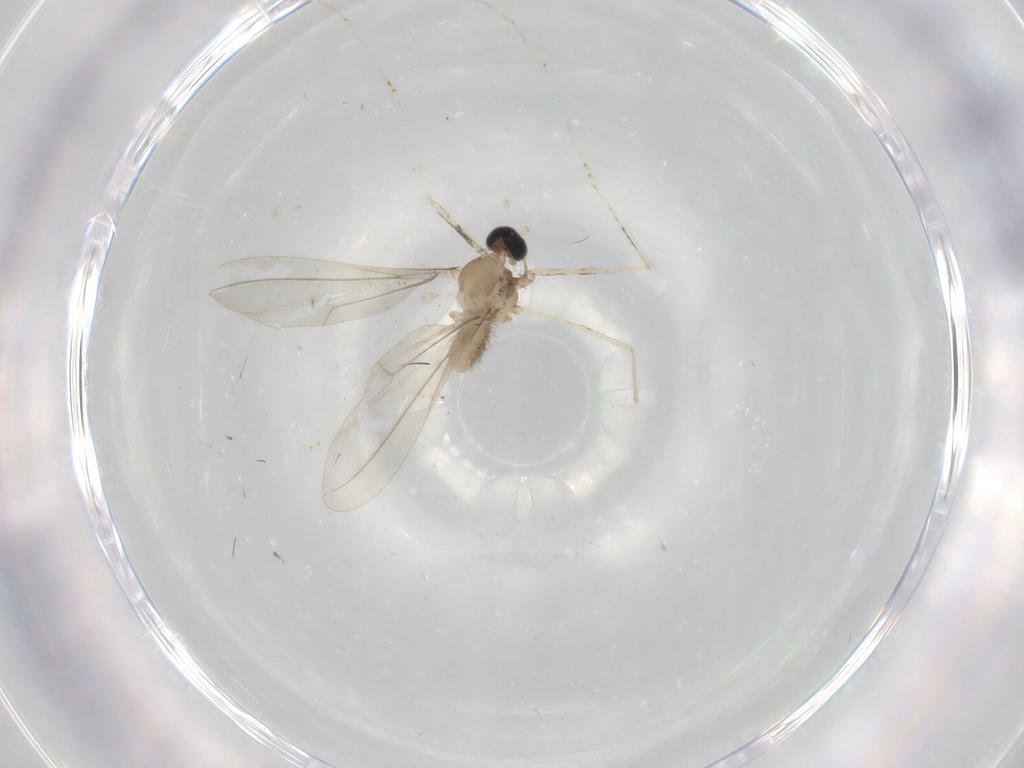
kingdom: Animalia
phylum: Arthropoda
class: Insecta
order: Diptera
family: Cecidomyiidae
